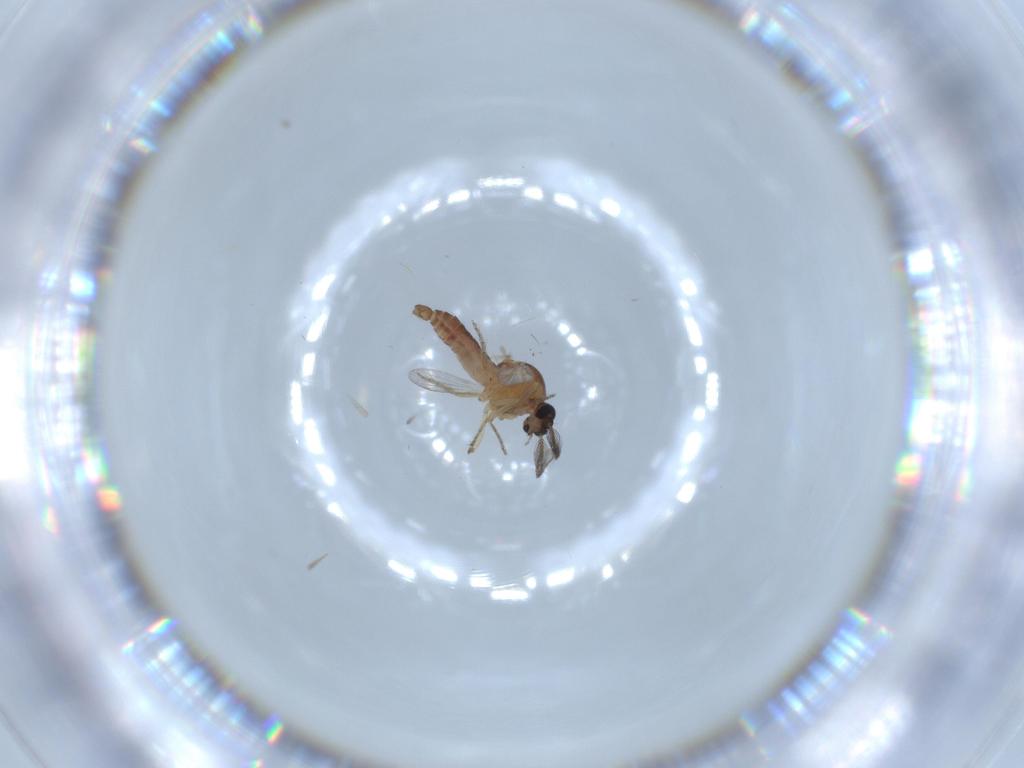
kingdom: Animalia
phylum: Arthropoda
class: Insecta
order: Diptera
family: Ceratopogonidae
